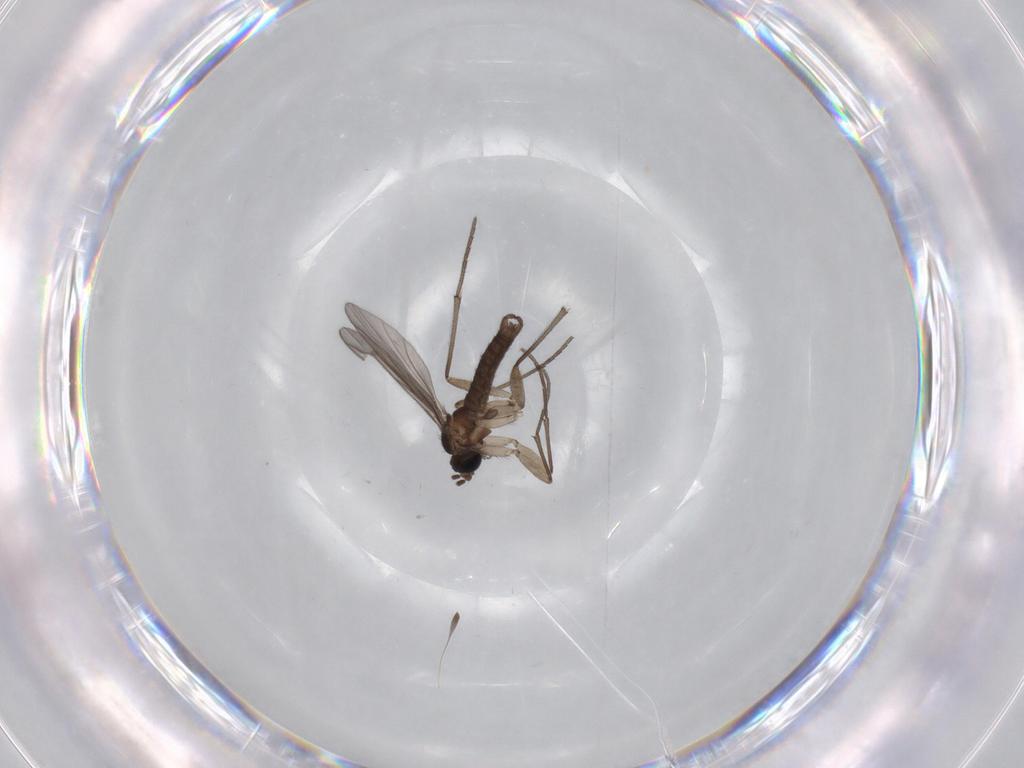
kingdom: Animalia
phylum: Arthropoda
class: Insecta
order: Diptera
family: Sciaridae
